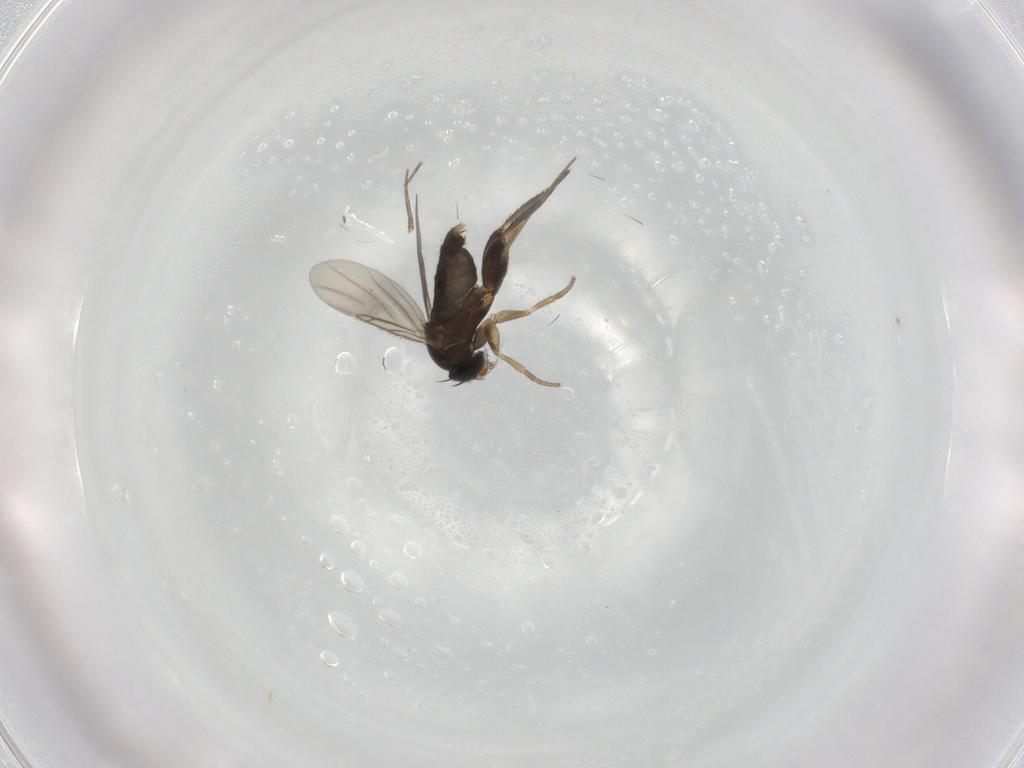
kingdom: Animalia
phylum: Arthropoda
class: Insecta
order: Diptera
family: Phoridae
